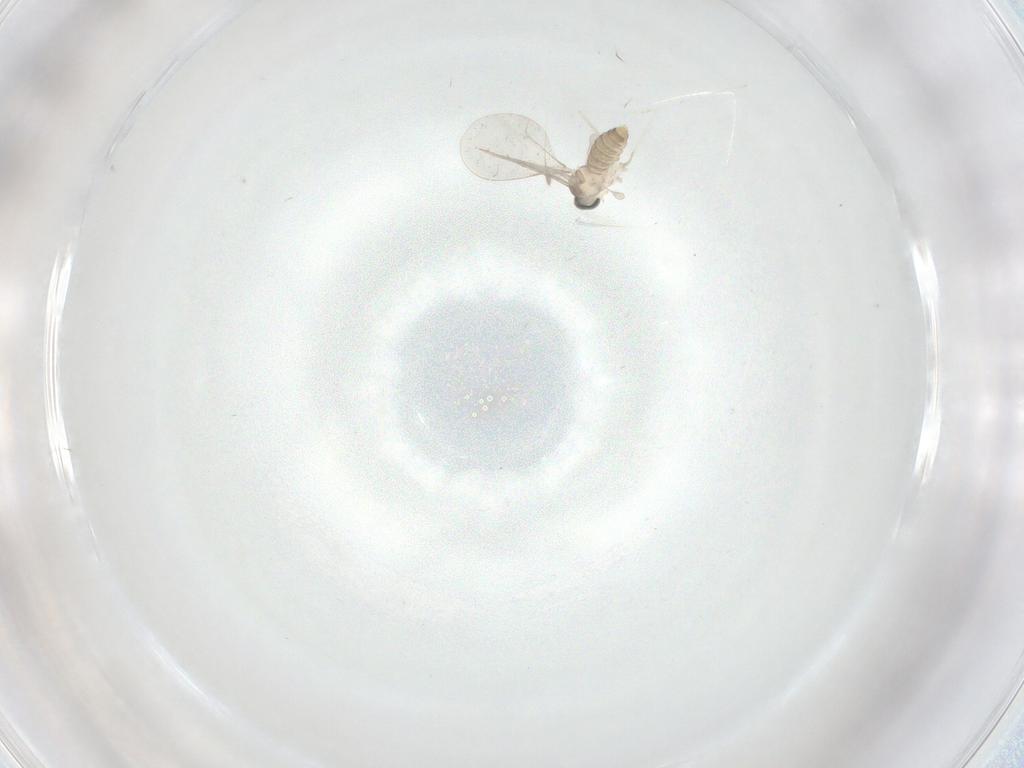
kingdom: Animalia
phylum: Arthropoda
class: Insecta
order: Diptera
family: Cecidomyiidae
